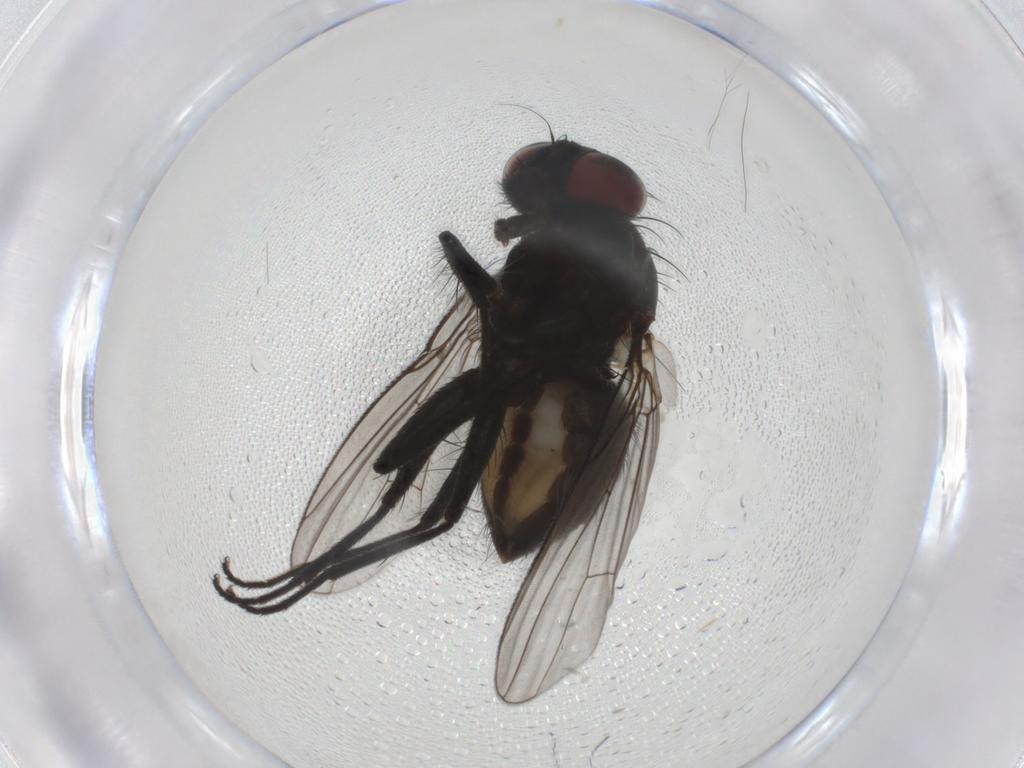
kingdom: Animalia
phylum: Arthropoda
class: Insecta
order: Diptera
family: Muscidae
